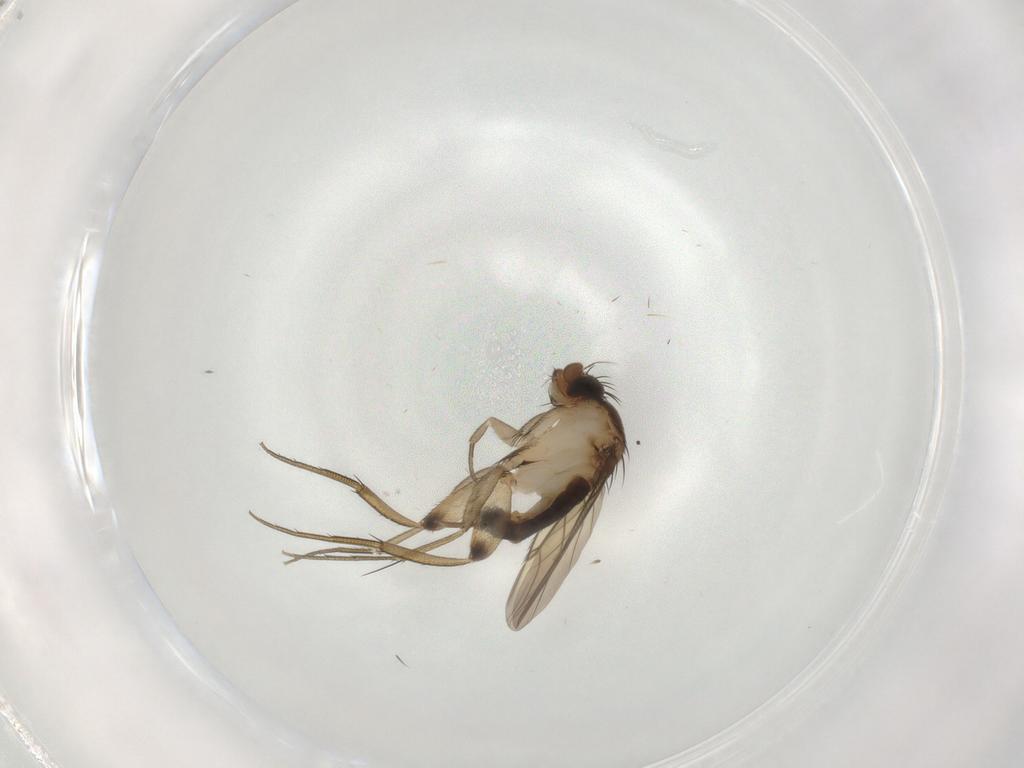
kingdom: Animalia
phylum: Arthropoda
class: Insecta
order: Diptera
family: Phoridae
